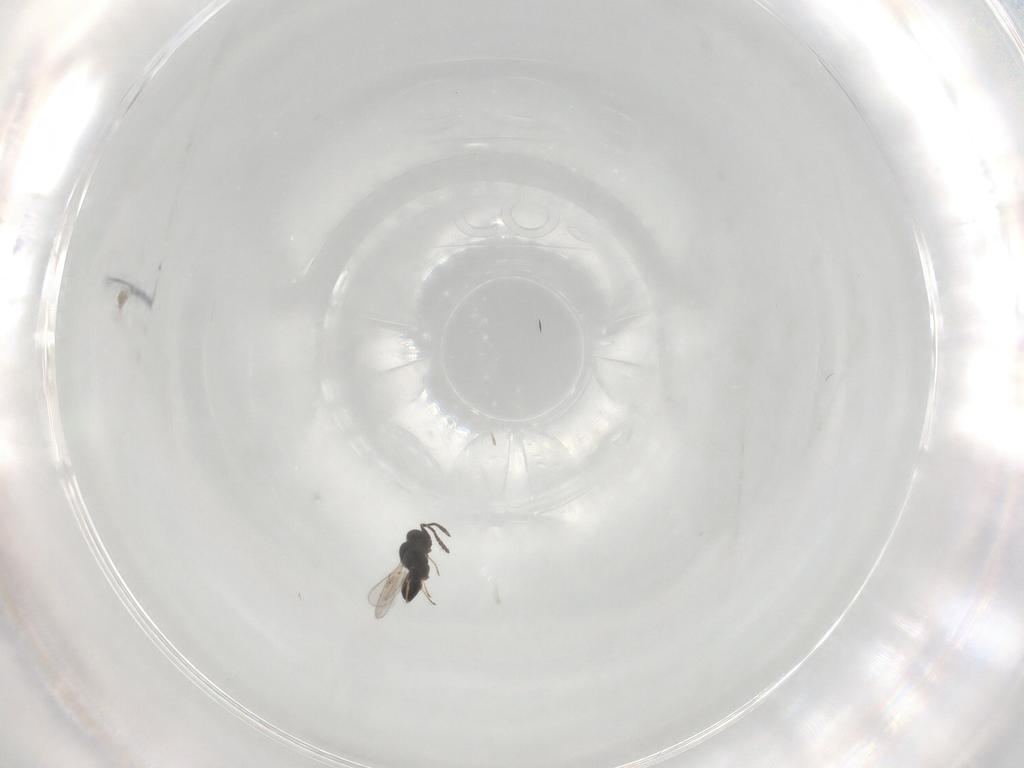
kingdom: Animalia
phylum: Arthropoda
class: Insecta
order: Hymenoptera
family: Scelionidae
